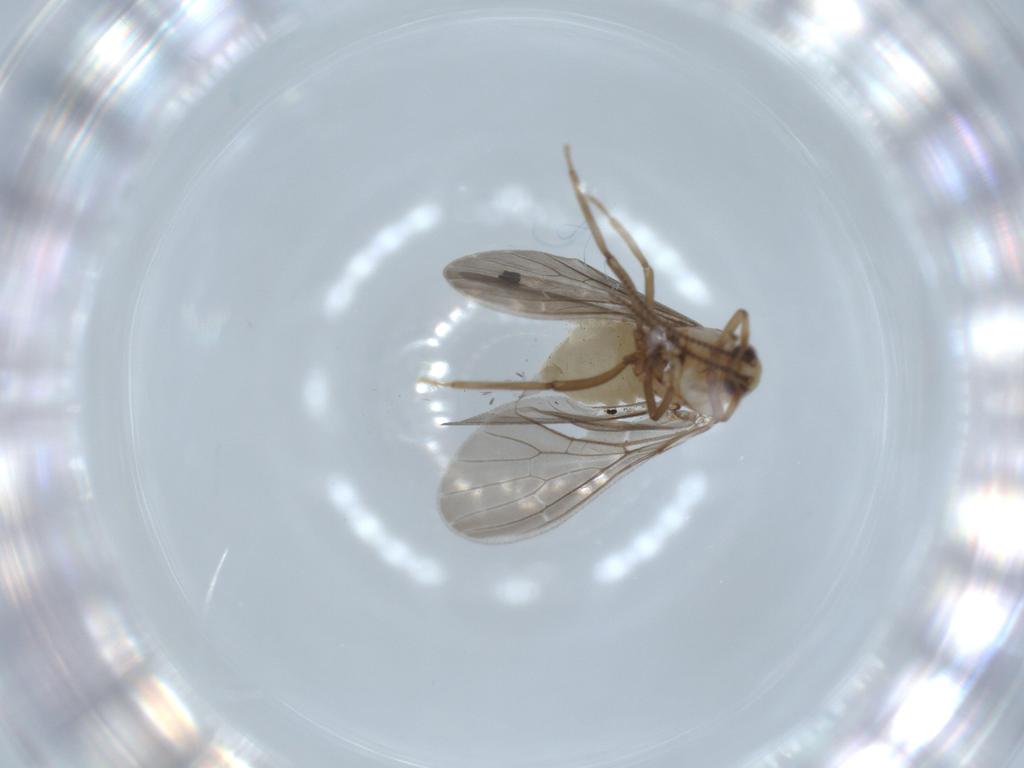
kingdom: Animalia
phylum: Arthropoda
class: Insecta
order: Neuroptera
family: Coniopterygidae
